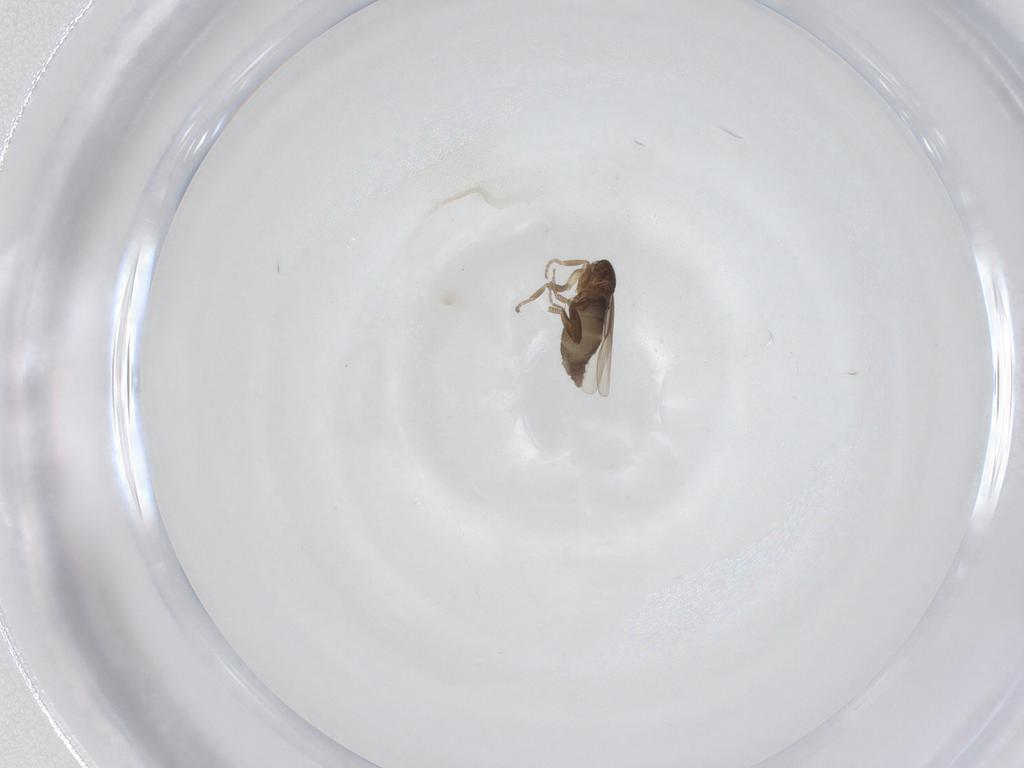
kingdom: Animalia
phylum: Arthropoda
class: Insecta
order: Diptera
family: Phoridae
